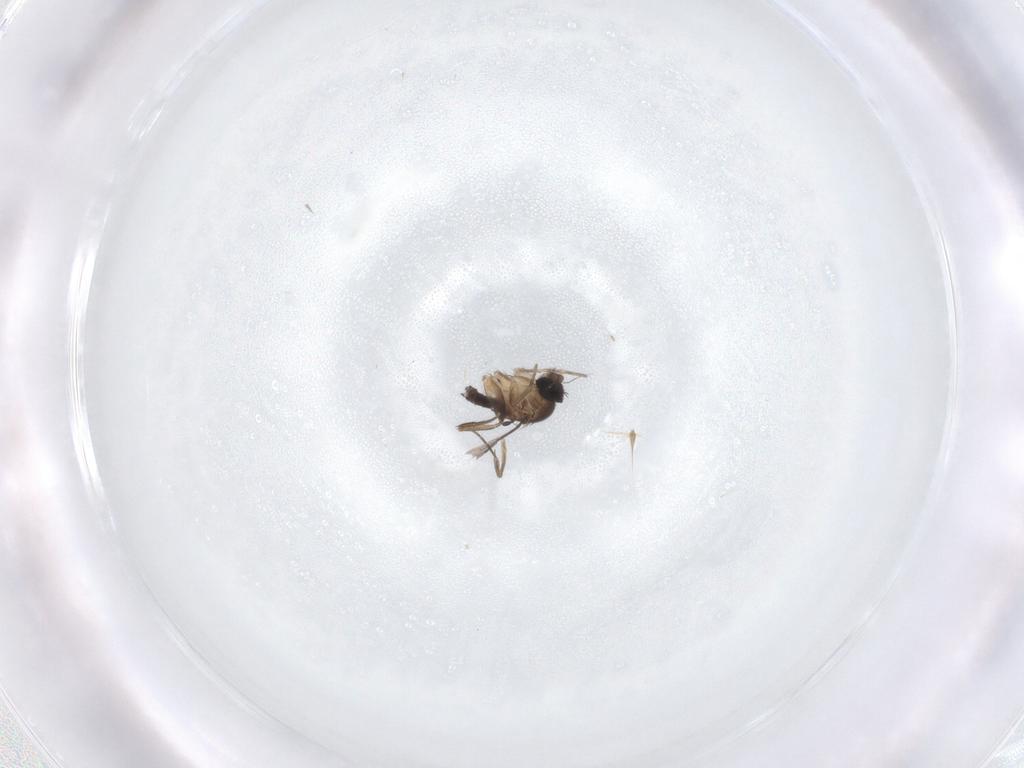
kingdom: Animalia
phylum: Arthropoda
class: Insecta
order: Diptera
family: Phoridae
